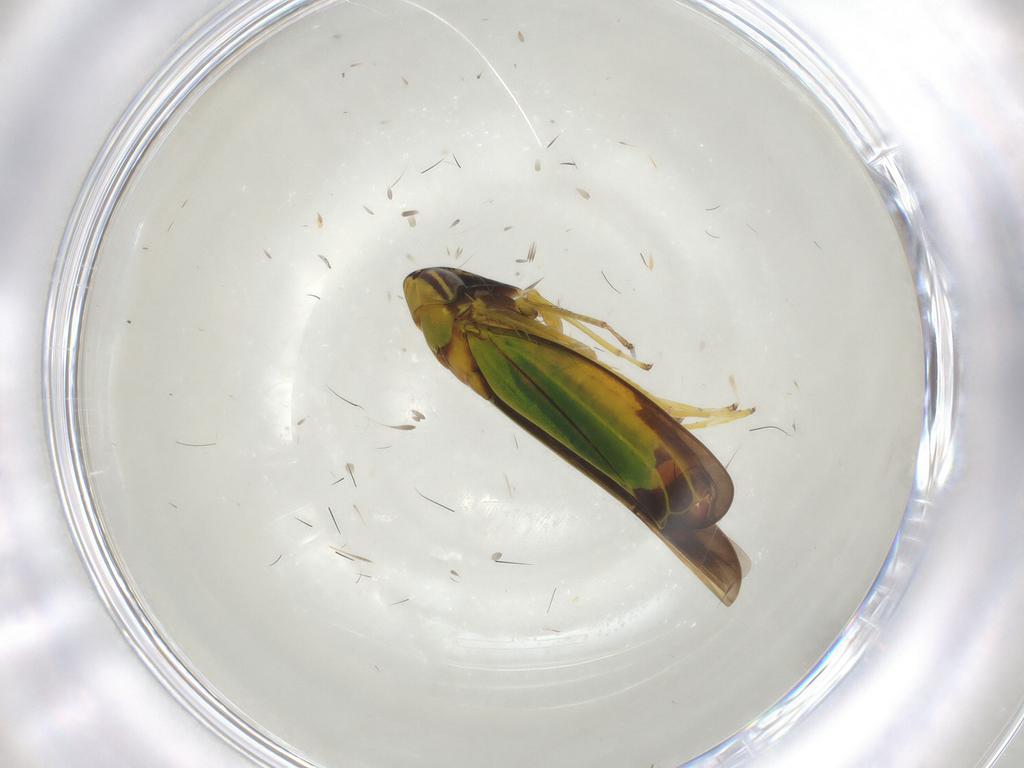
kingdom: Animalia
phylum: Arthropoda
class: Insecta
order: Hemiptera
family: Cicadellidae
